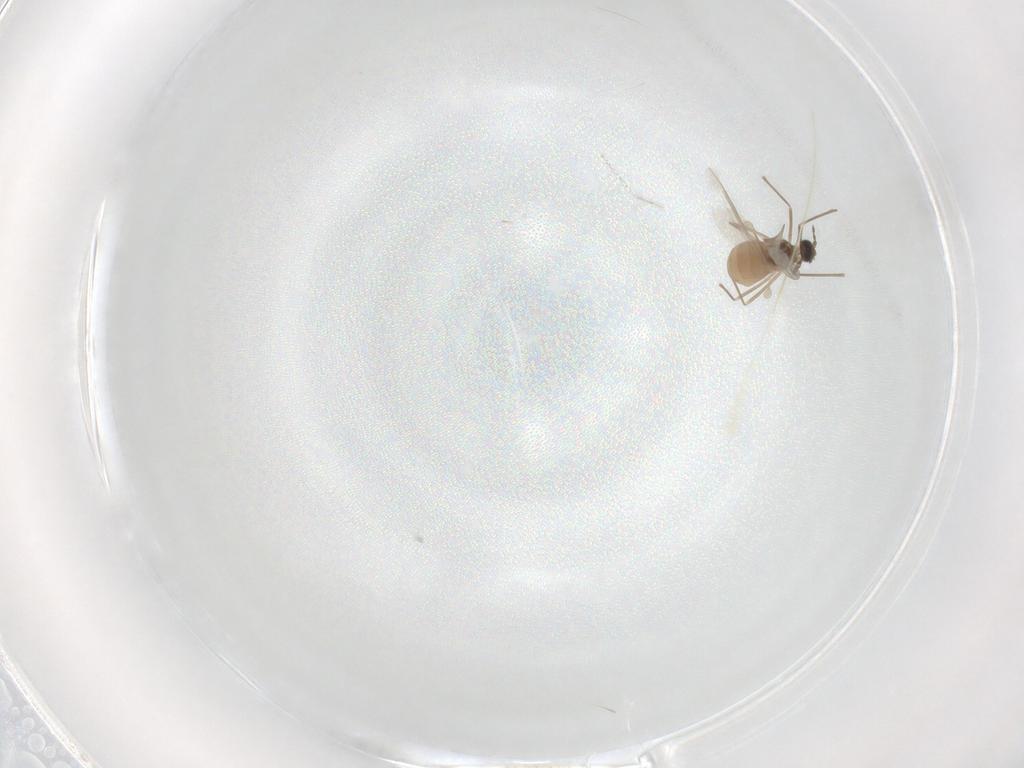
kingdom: Animalia
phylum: Arthropoda
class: Insecta
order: Diptera
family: Cecidomyiidae
